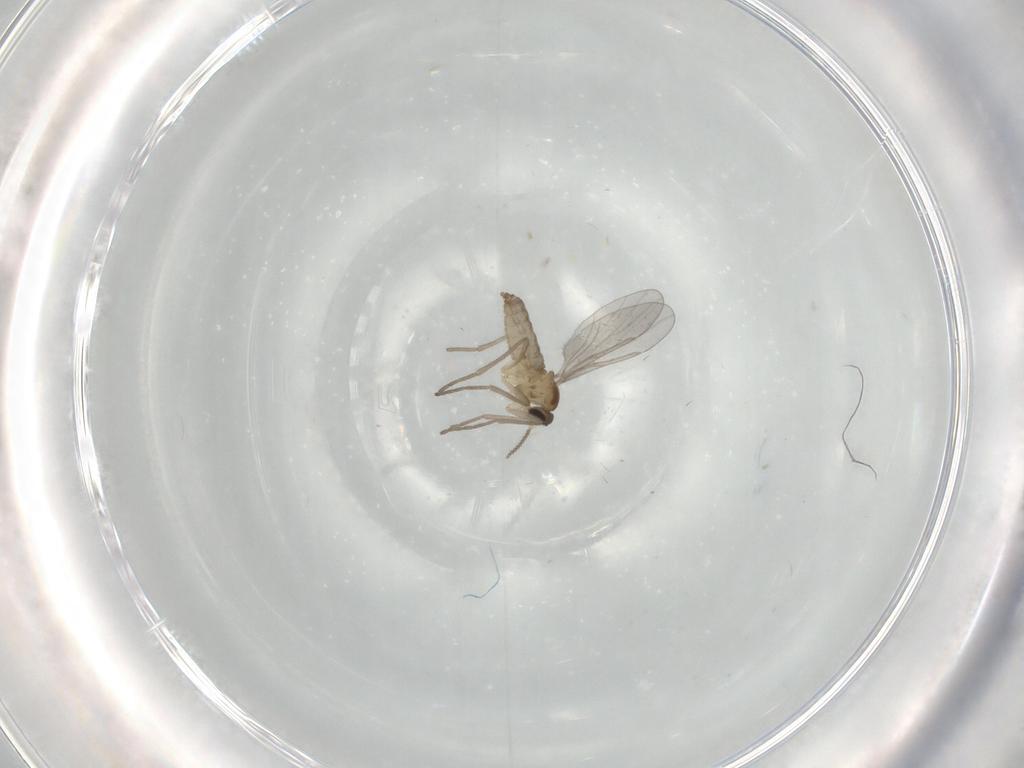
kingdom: Animalia
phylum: Arthropoda
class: Insecta
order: Diptera
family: Cecidomyiidae
